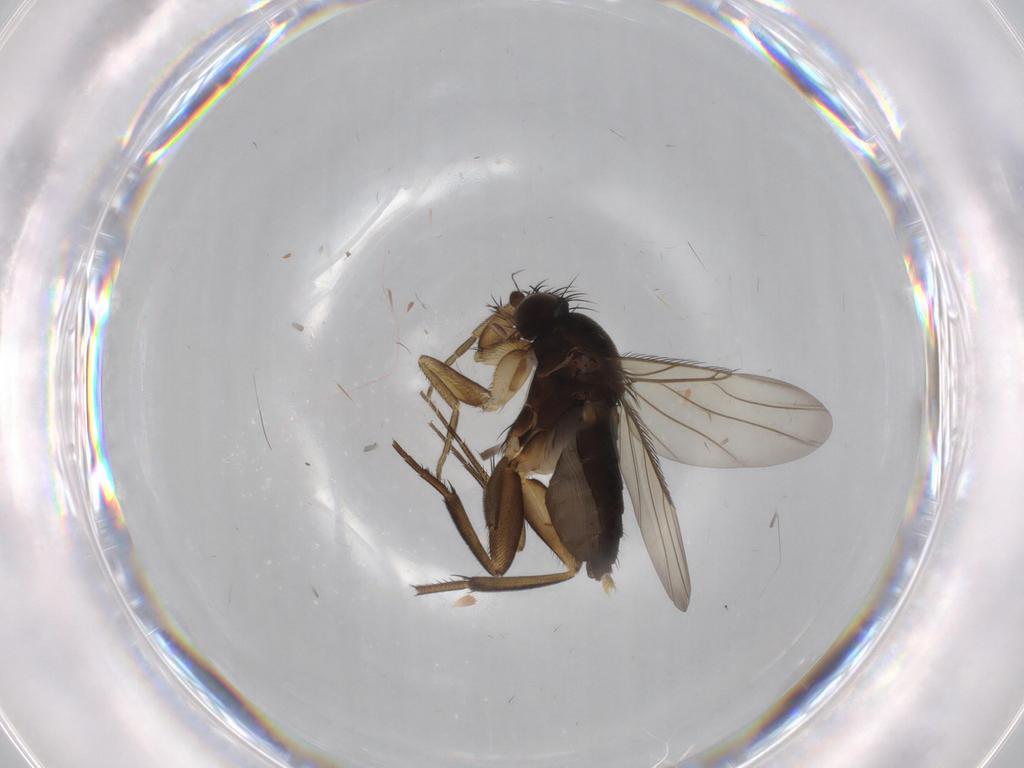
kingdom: Animalia
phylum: Arthropoda
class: Insecta
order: Diptera
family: Phoridae
